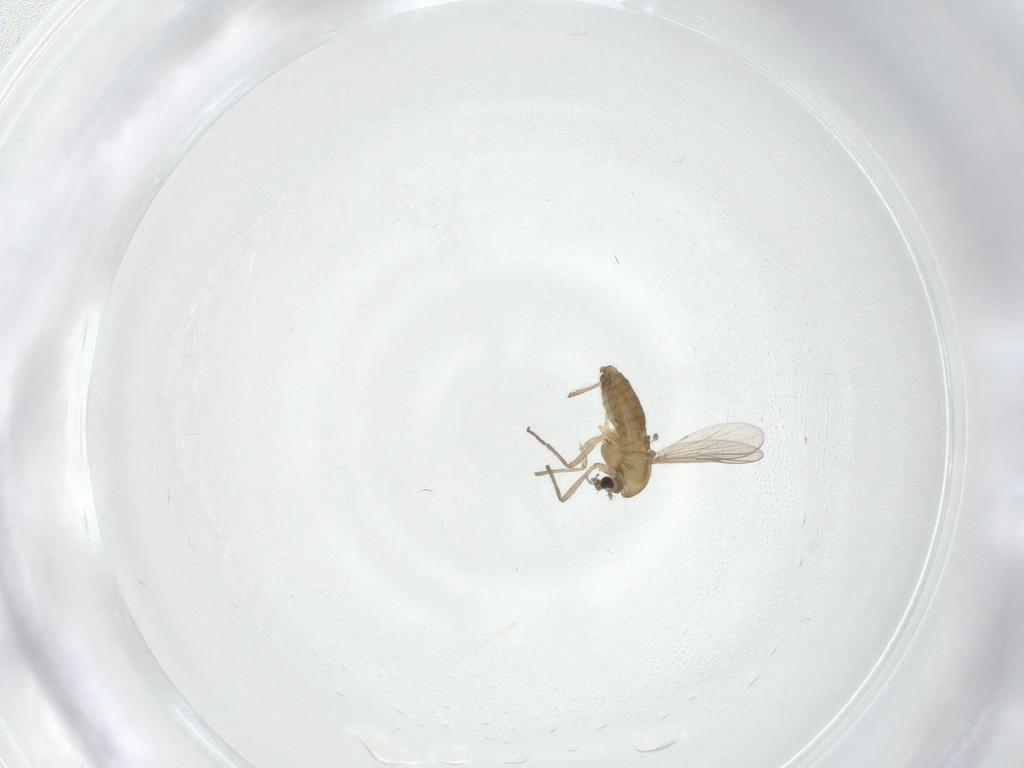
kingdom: Animalia
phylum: Arthropoda
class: Insecta
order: Diptera
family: Chironomidae
